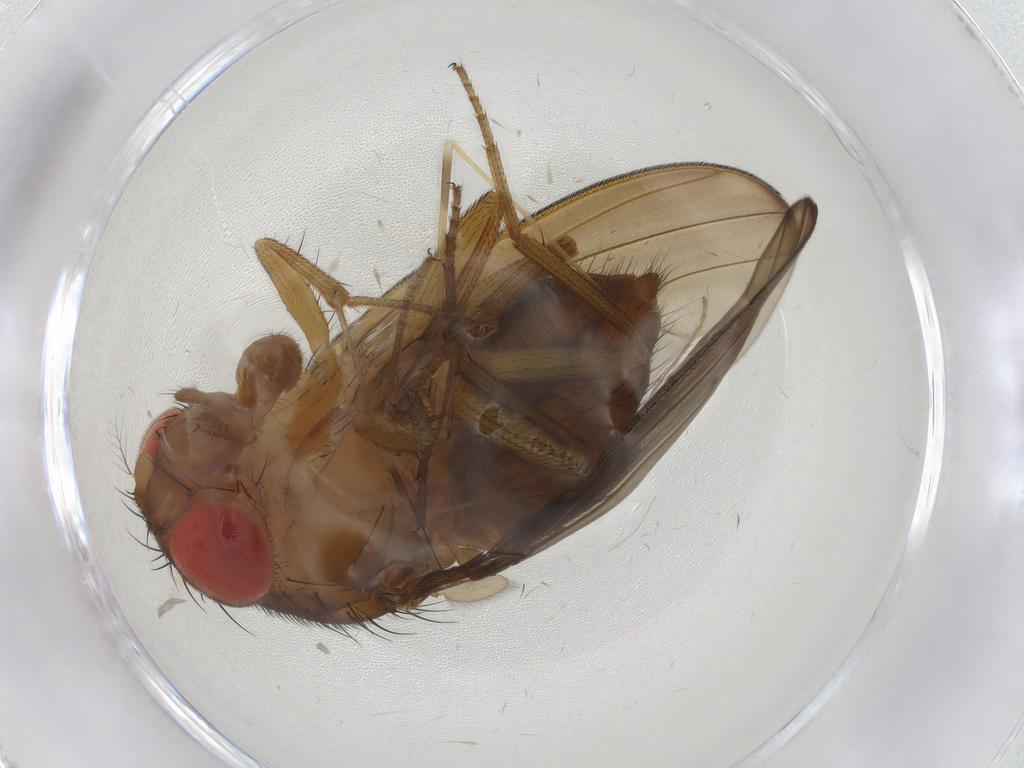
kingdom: Animalia
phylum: Arthropoda
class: Insecta
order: Diptera
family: Drosophilidae
